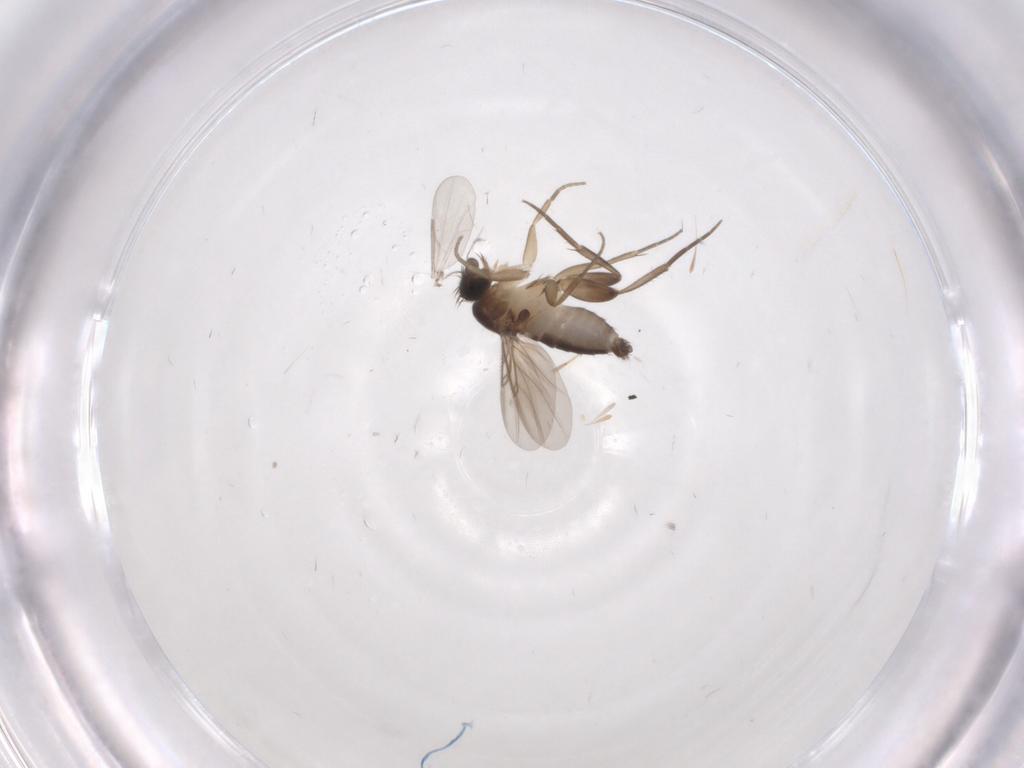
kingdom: Animalia
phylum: Arthropoda
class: Insecta
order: Diptera
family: Phoridae
